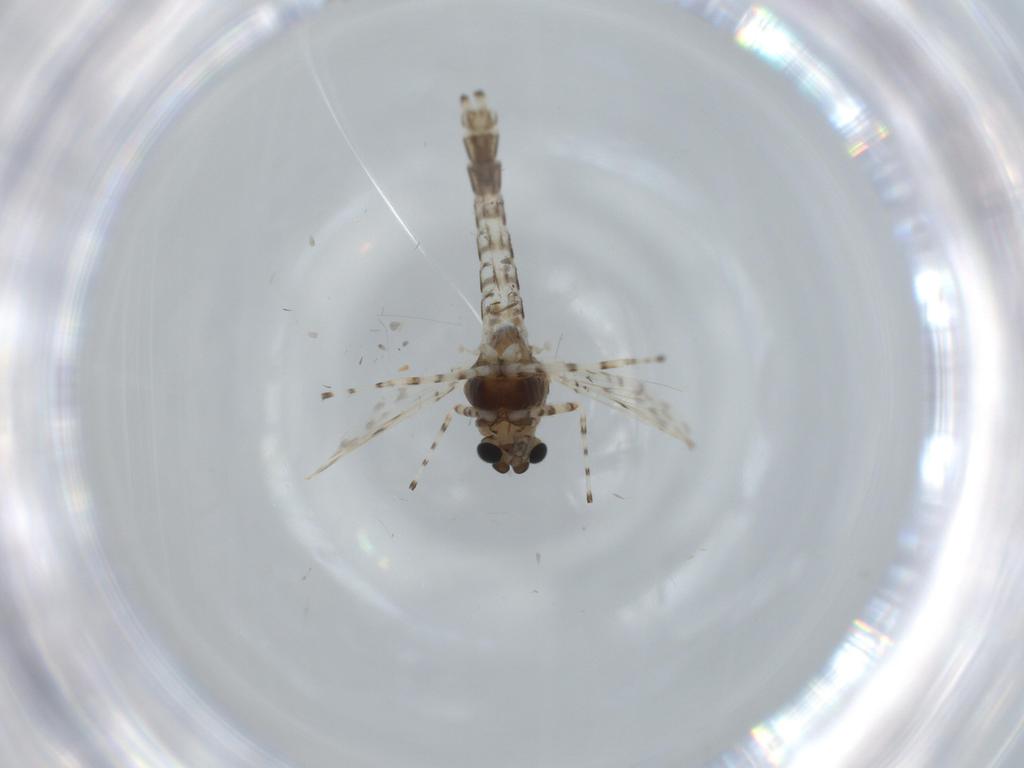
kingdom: Animalia
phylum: Arthropoda
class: Insecta
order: Diptera
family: Chironomidae
